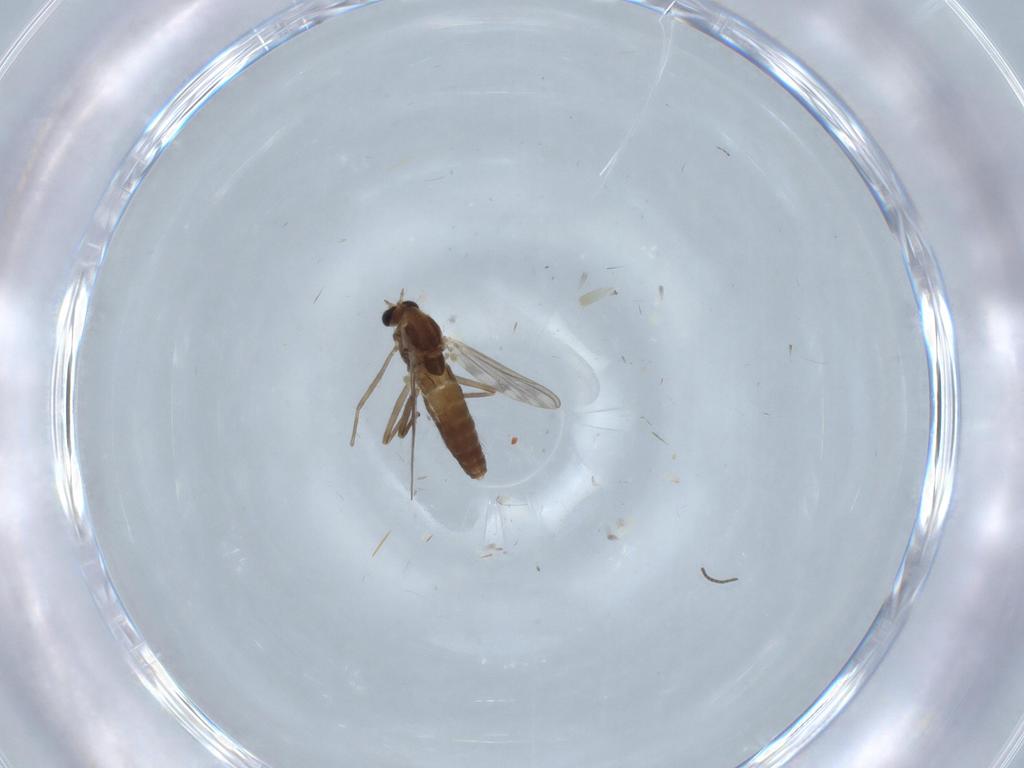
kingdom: Animalia
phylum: Arthropoda
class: Insecta
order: Diptera
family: Chironomidae
